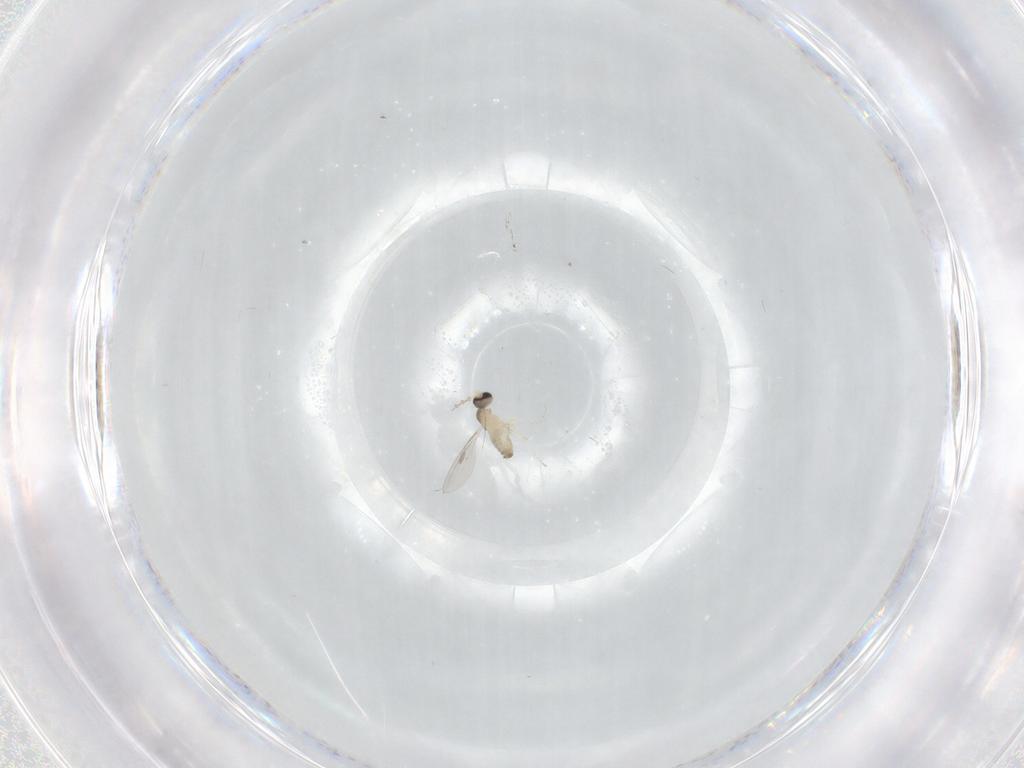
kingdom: Animalia
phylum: Arthropoda
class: Insecta
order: Diptera
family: Cecidomyiidae
